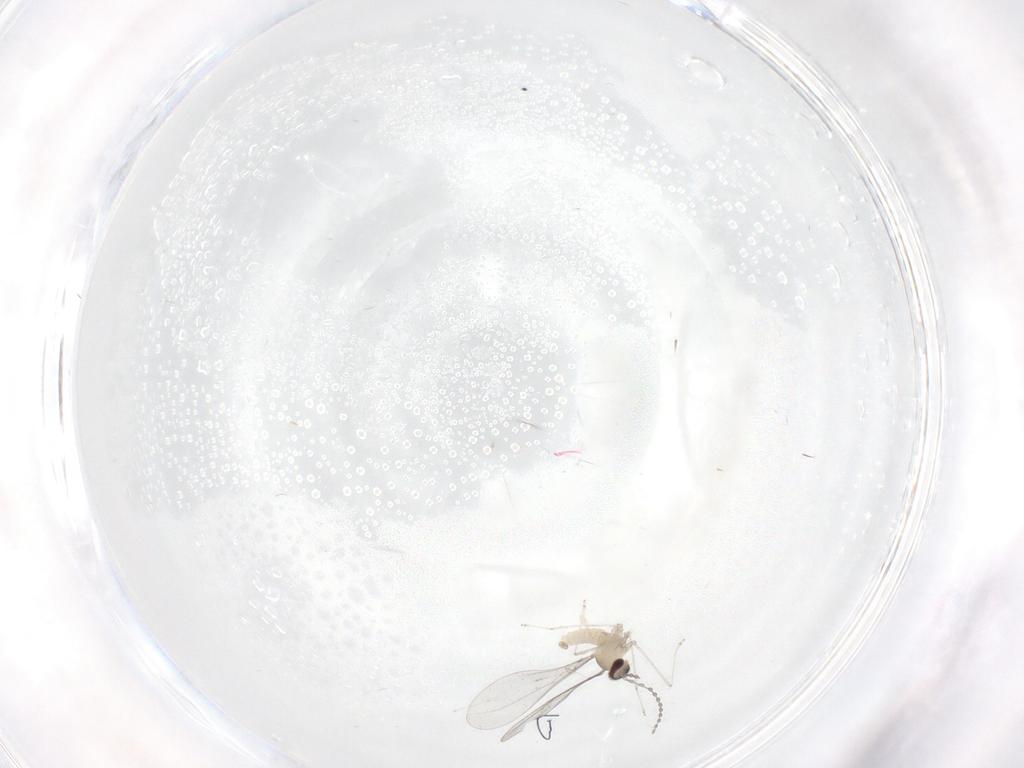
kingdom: Animalia
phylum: Arthropoda
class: Insecta
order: Diptera
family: Cecidomyiidae
